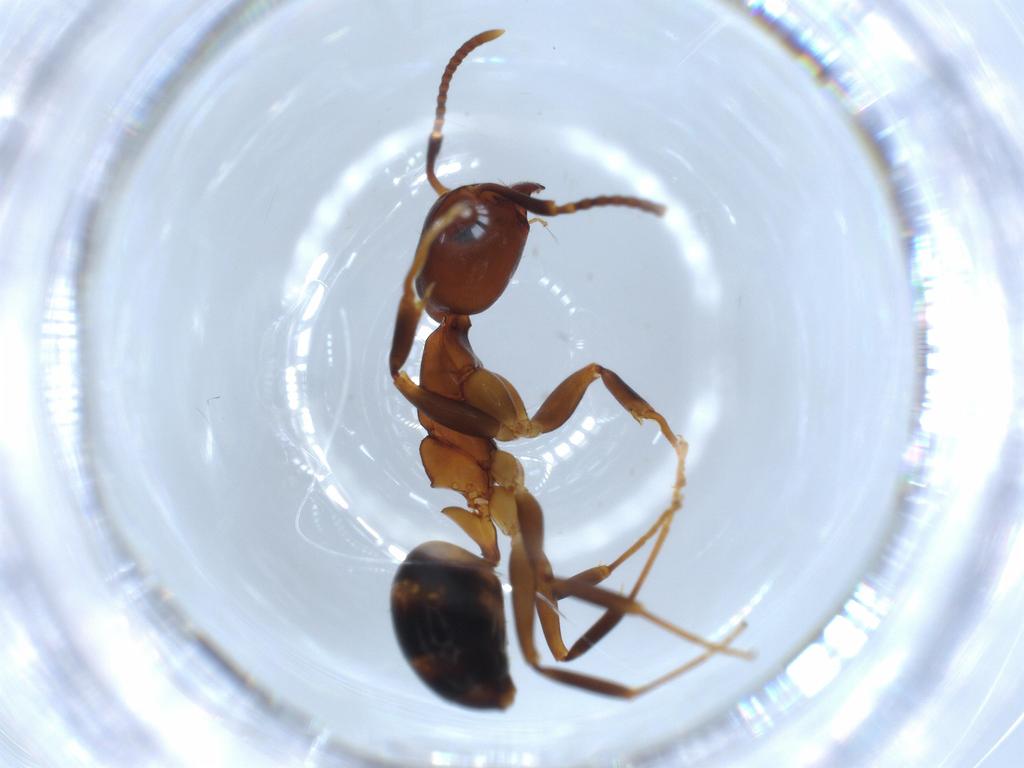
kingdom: Animalia
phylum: Arthropoda
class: Insecta
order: Hymenoptera
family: Formicidae
